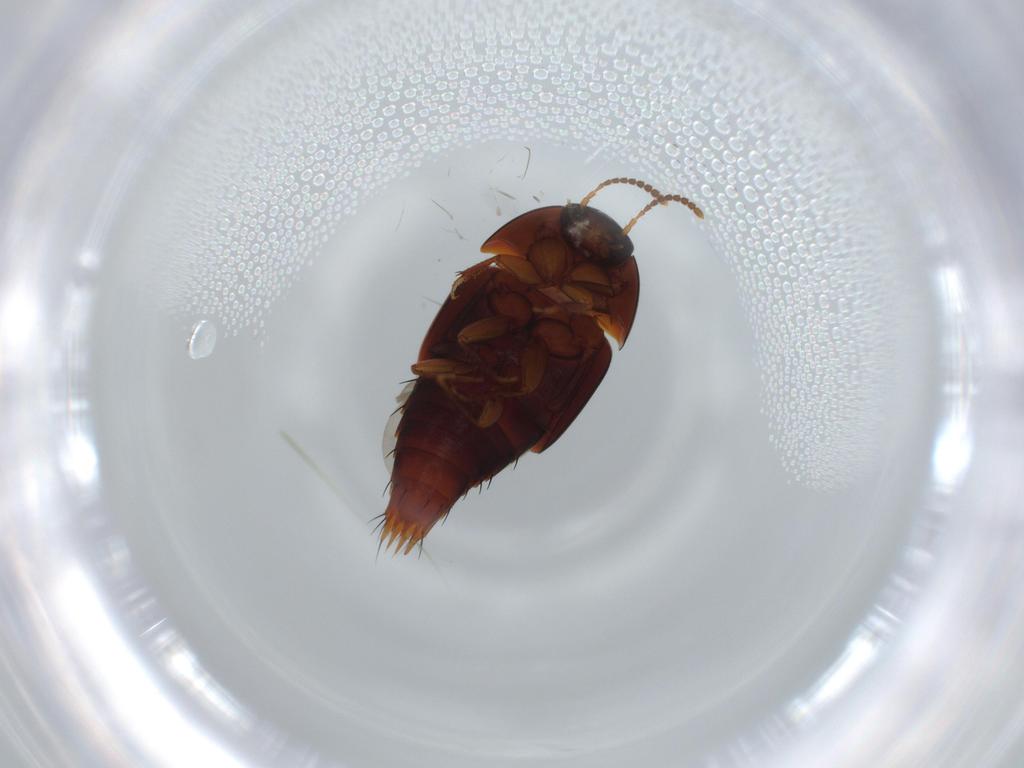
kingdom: Animalia
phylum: Arthropoda
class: Insecta
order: Coleoptera
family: Staphylinidae
